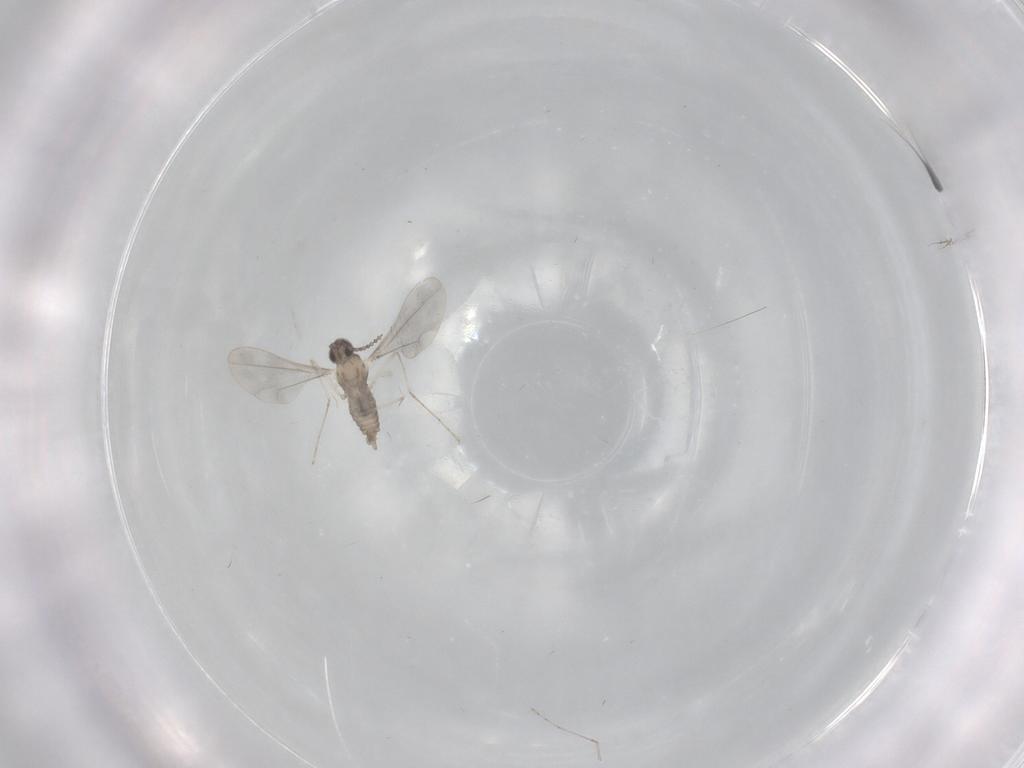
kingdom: Animalia
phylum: Arthropoda
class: Insecta
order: Diptera
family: Cecidomyiidae
